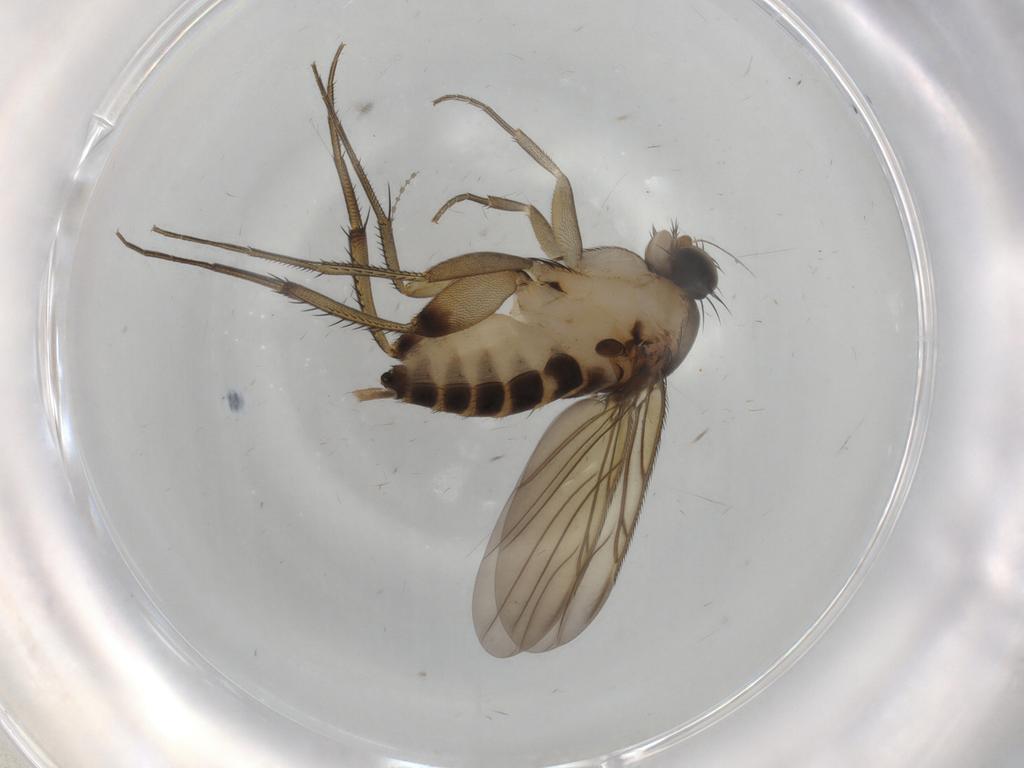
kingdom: Animalia
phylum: Arthropoda
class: Insecta
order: Diptera
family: Phoridae
